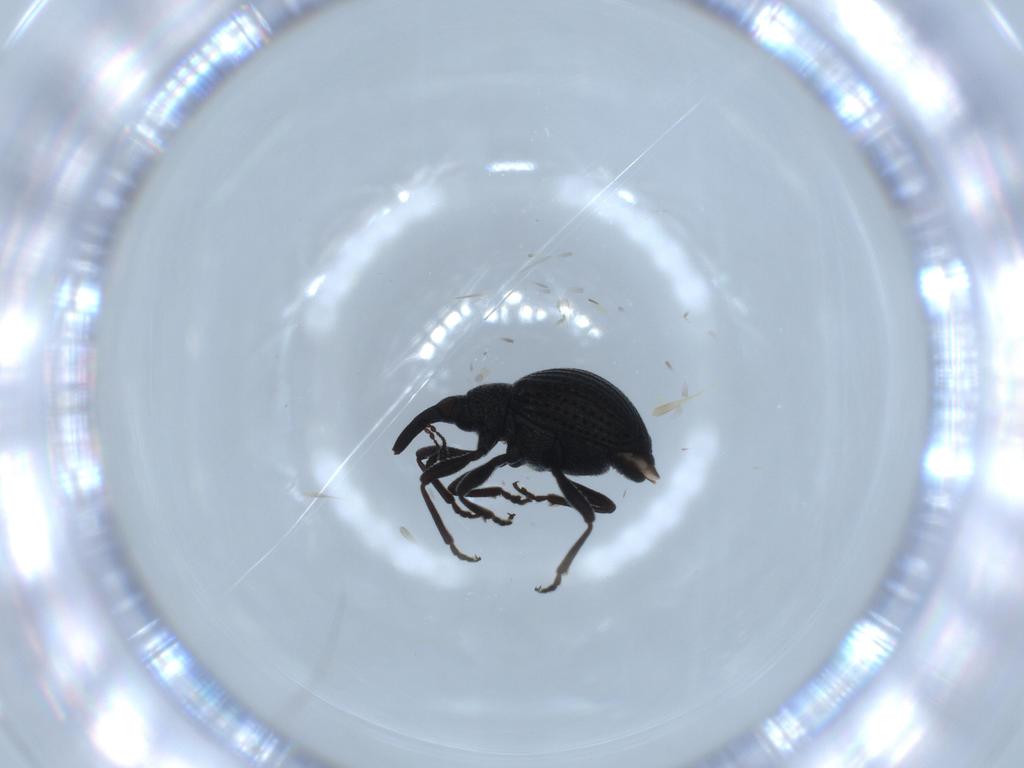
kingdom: Animalia
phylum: Arthropoda
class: Insecta
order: Coleoptera
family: Brentidae
